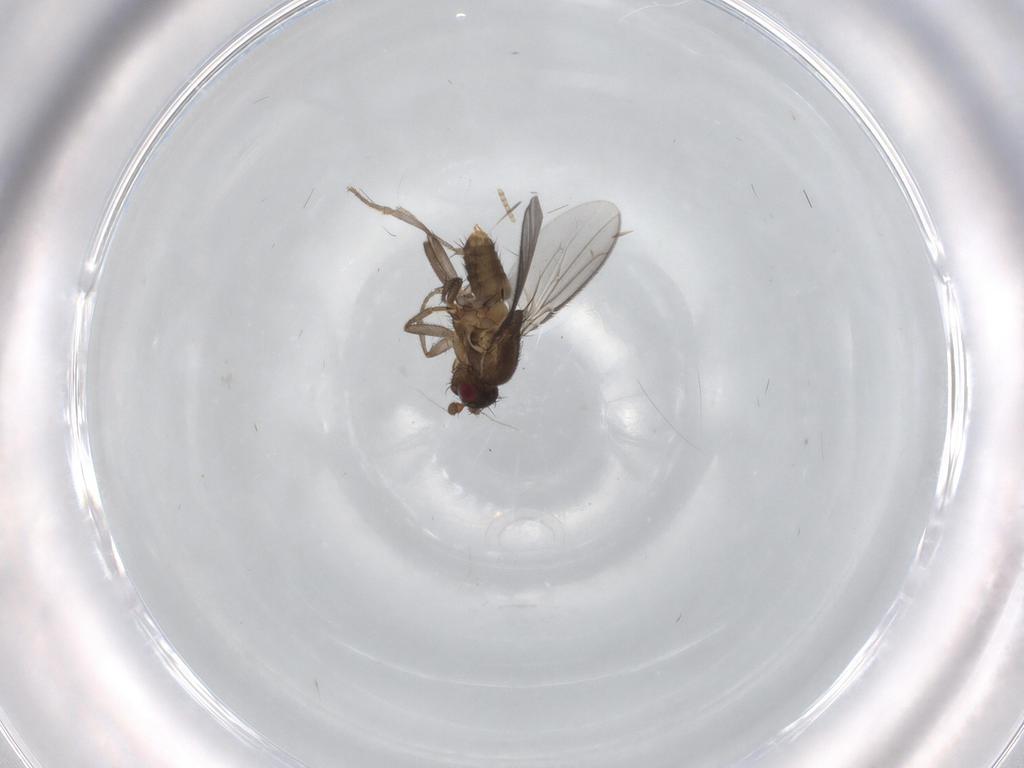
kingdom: Animalia
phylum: Arthropoda
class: Insecta
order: Diptera
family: Sphaeroceridae
